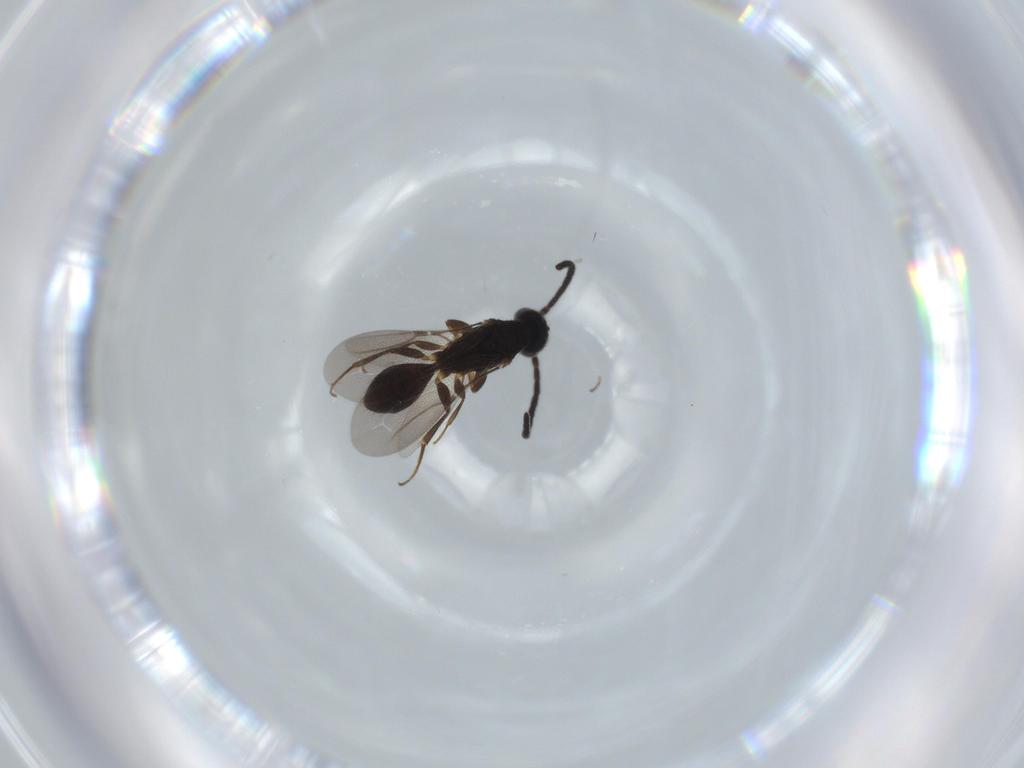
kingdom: Animalia
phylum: Arthropoda
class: Insecta
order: Hymenoptera
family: Bethylidae
